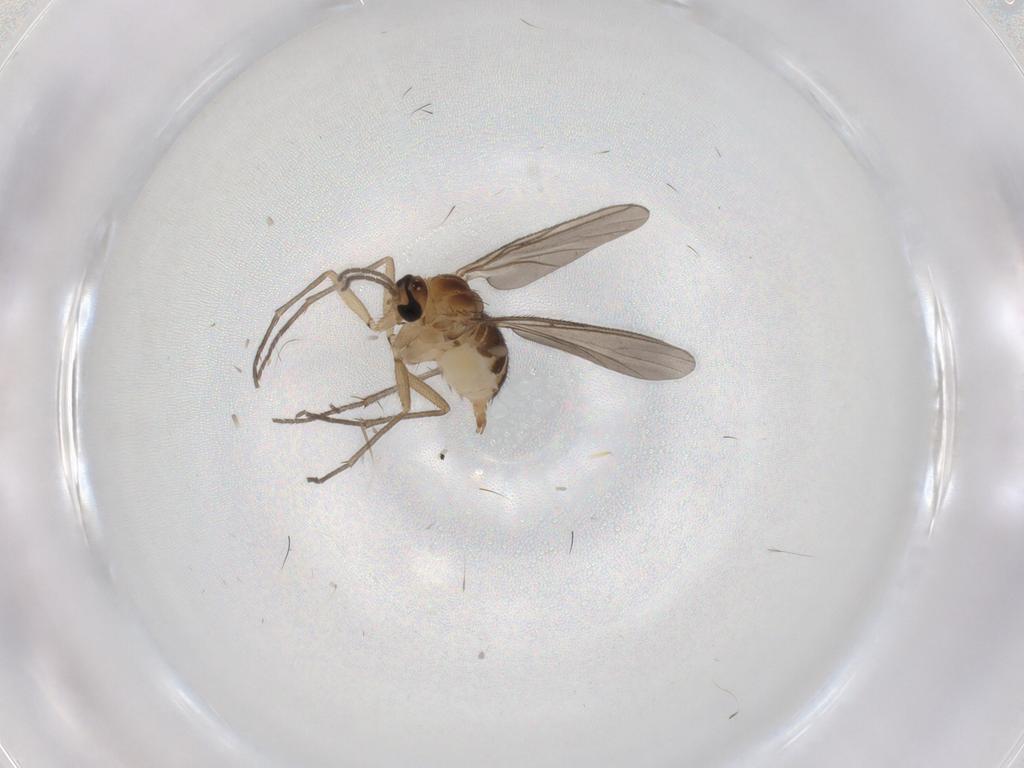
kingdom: Animalia
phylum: Arthropoda
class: Insecta
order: Diptera
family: Sciaridae
